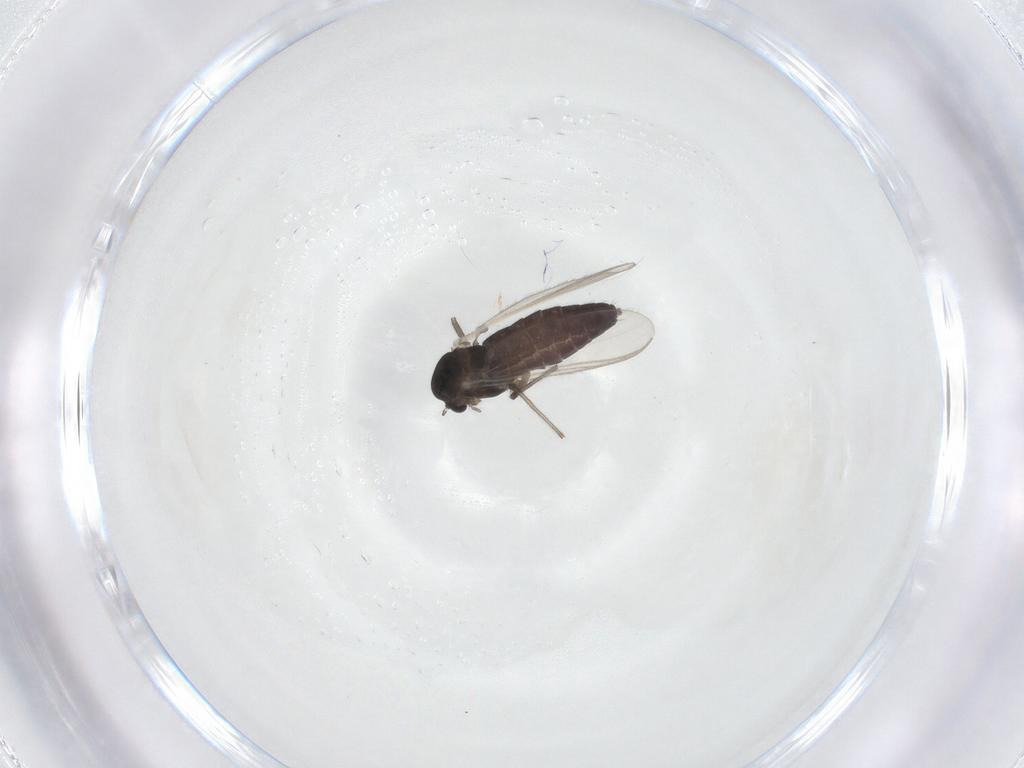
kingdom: Animalia
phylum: Arthropoda
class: Insecta
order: Diptera
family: Chironomidae
